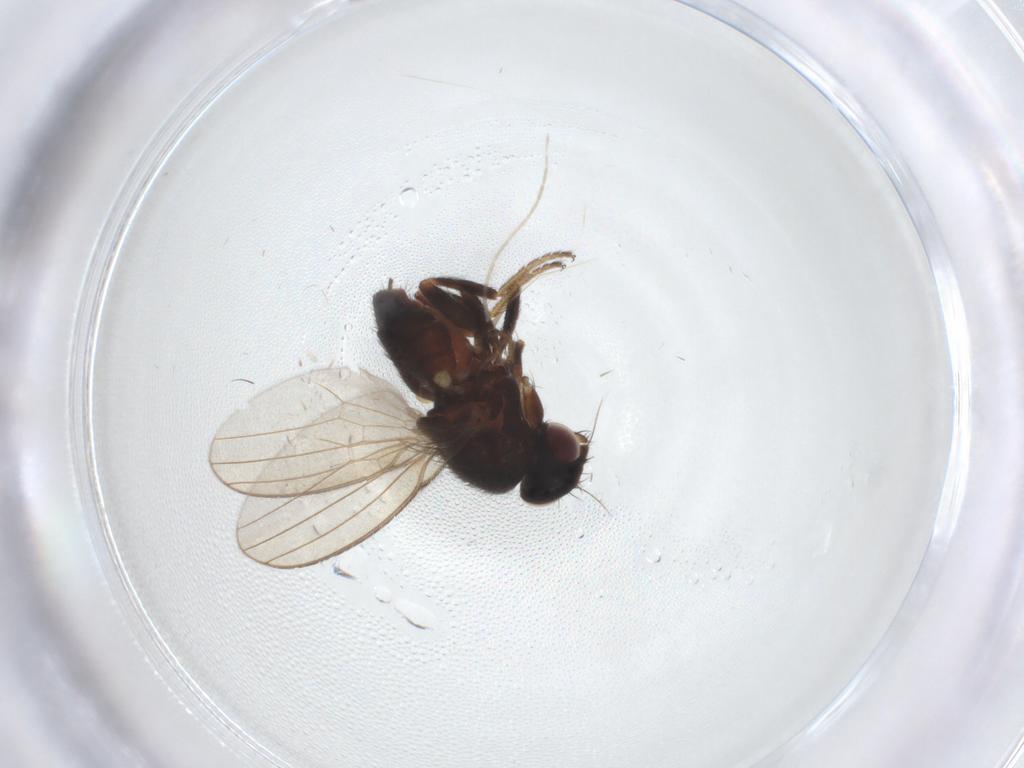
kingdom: Animalia
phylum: Arthropoda
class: Insecta
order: Diptera
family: Milichiidae
